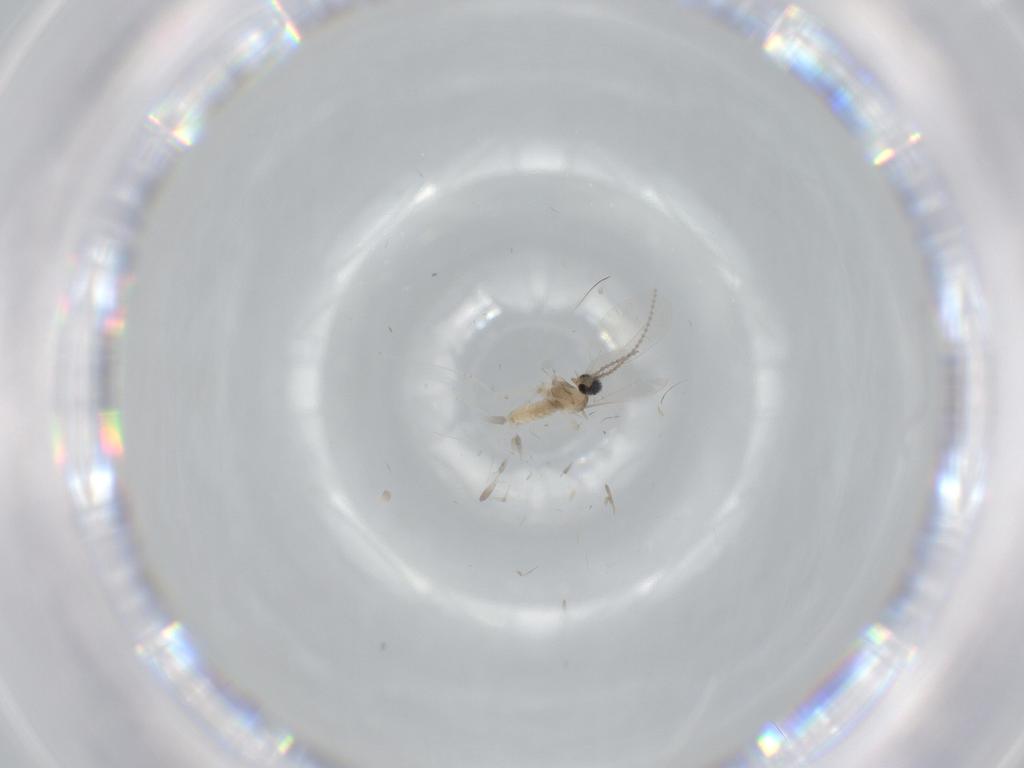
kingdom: Animalia
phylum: Arthropoda
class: Insecta
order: Diptera
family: Cecidomyiidae
